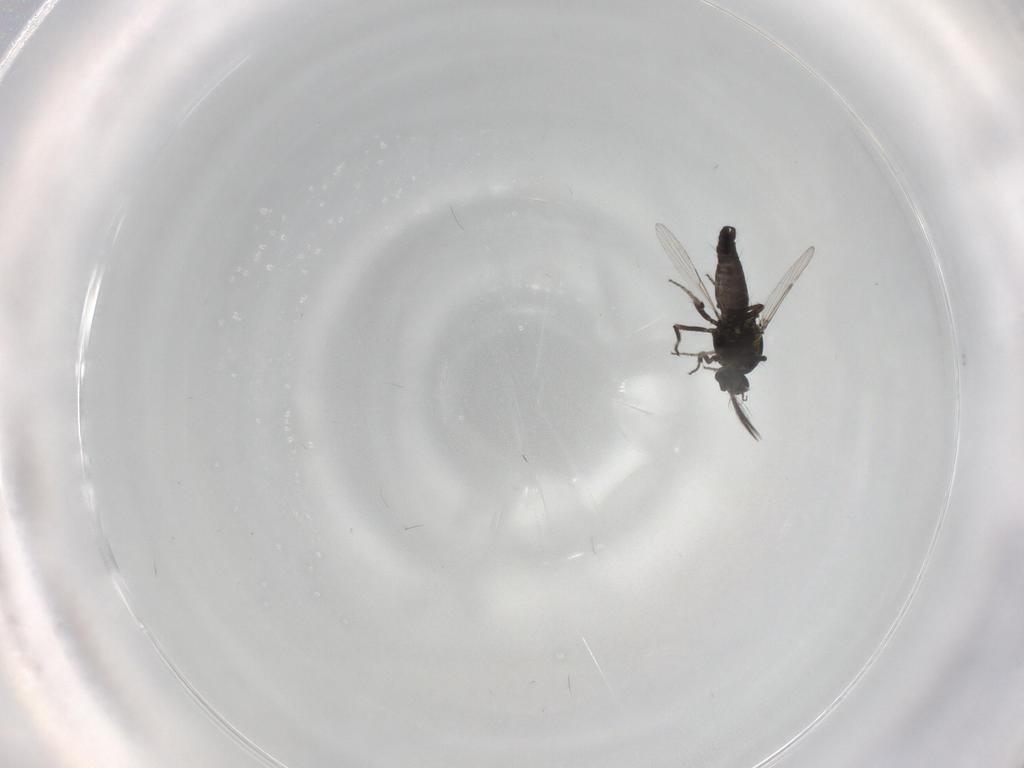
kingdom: Animalia
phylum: Arthropoda
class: Insecta
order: Diptera
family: Ceratopogonidae
